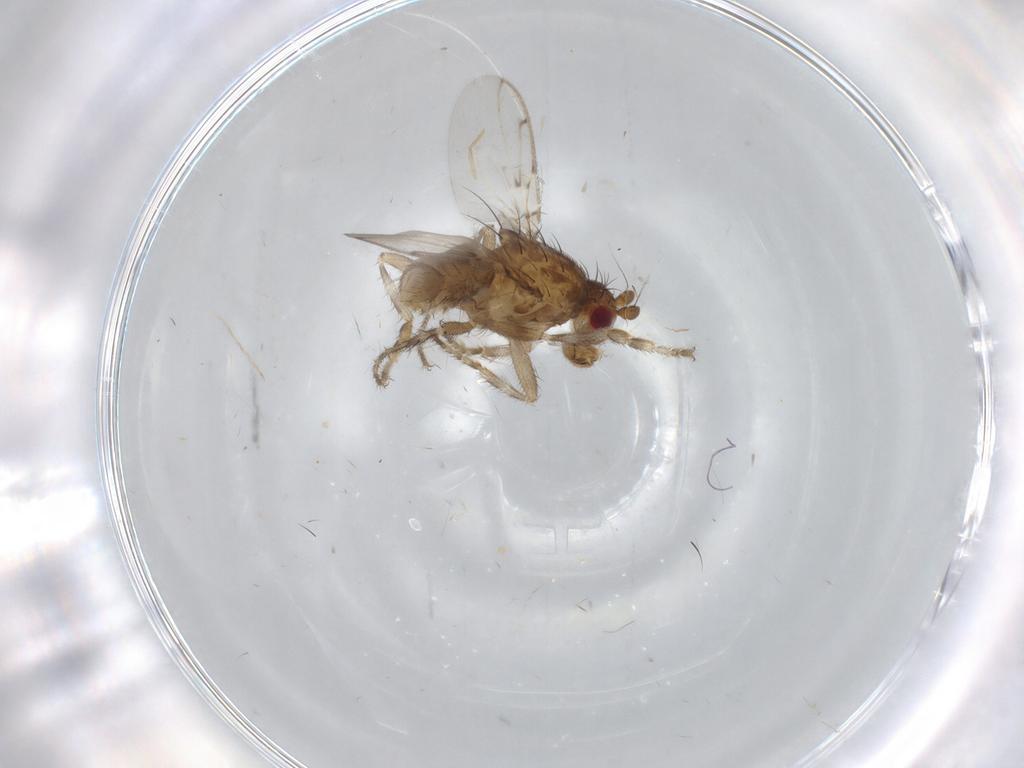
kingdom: Animalia
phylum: Arthropoda
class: Insecta
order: Diptera
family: Ceratopogonidae
